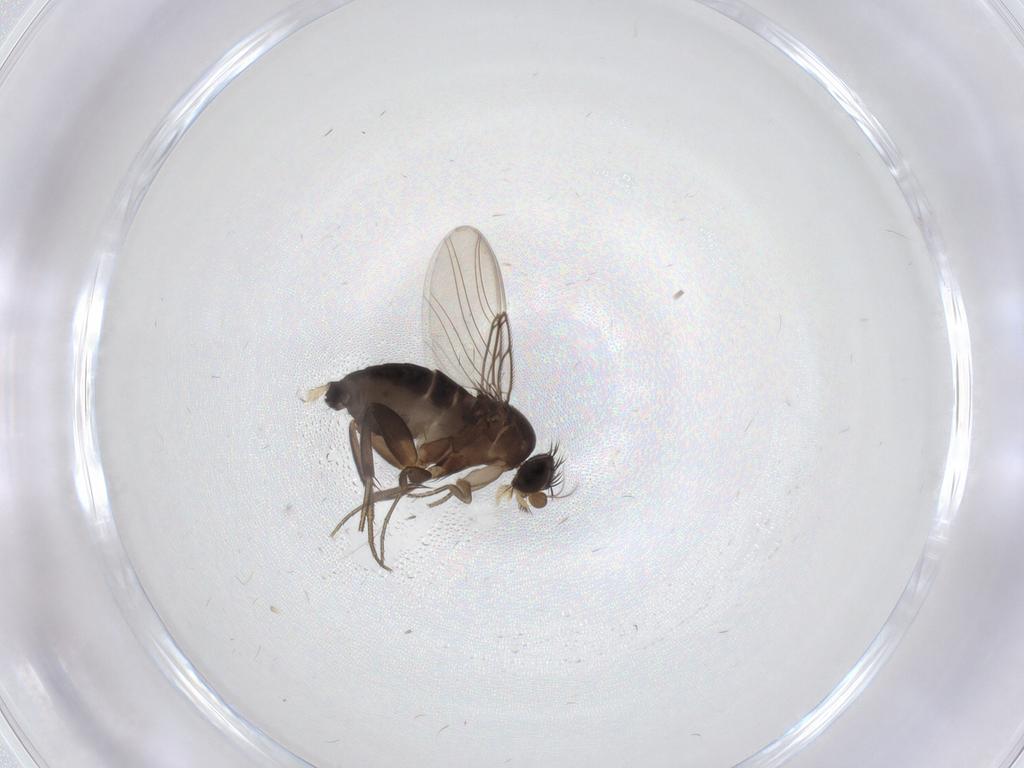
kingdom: Animalia
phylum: Arthropoda
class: Insecta
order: Diptera
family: Phoridae
